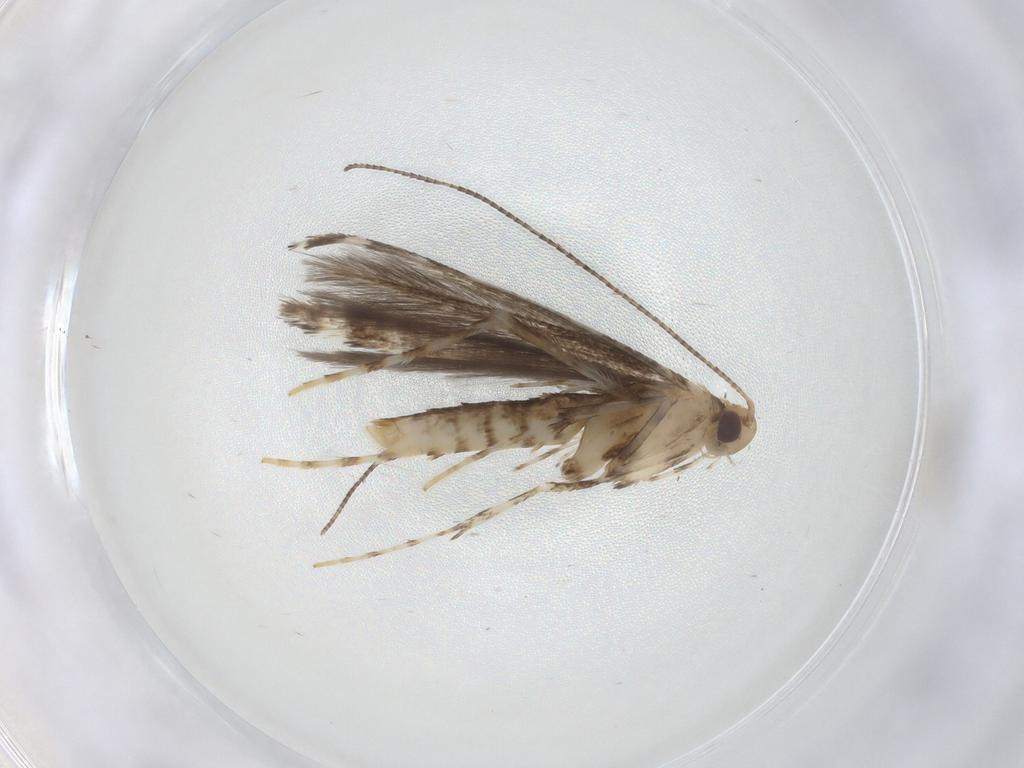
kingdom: Animalia
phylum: Arthropoda
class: Insecta
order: Lepidoptera
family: Gracillariidae
